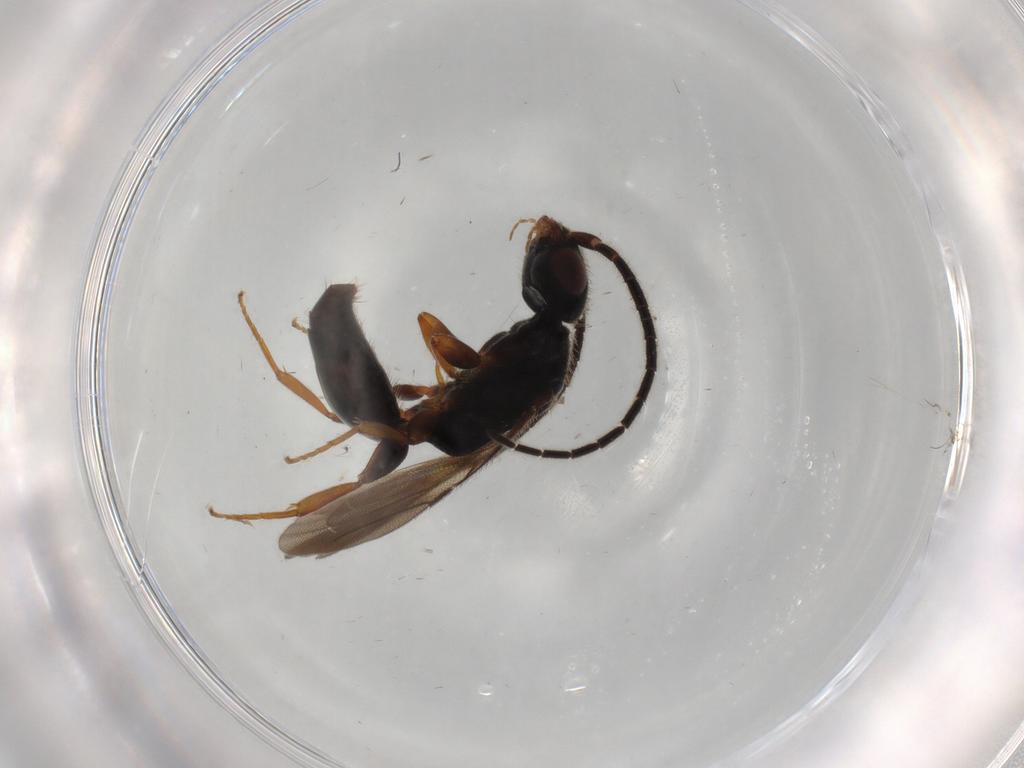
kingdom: Animalia
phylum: Arthropoda
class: Insecta
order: Hymenoptera
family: Bethylidae
